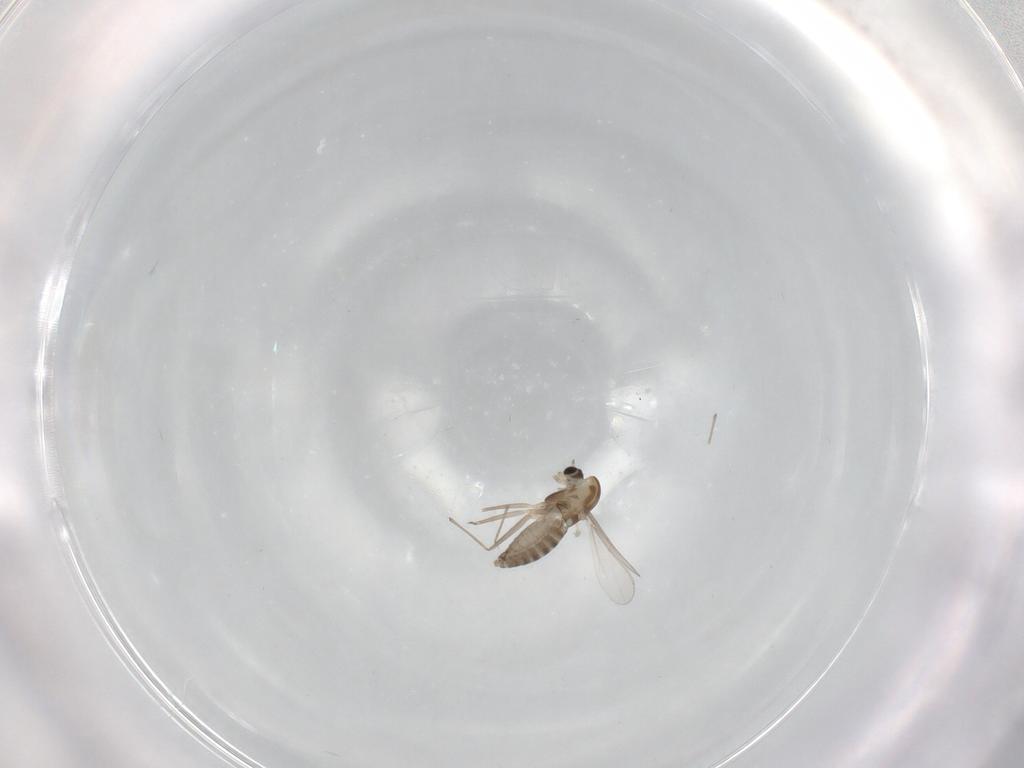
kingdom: Animalia
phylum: Arthropoda
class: Insecta
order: Diptera
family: Chironomidae
